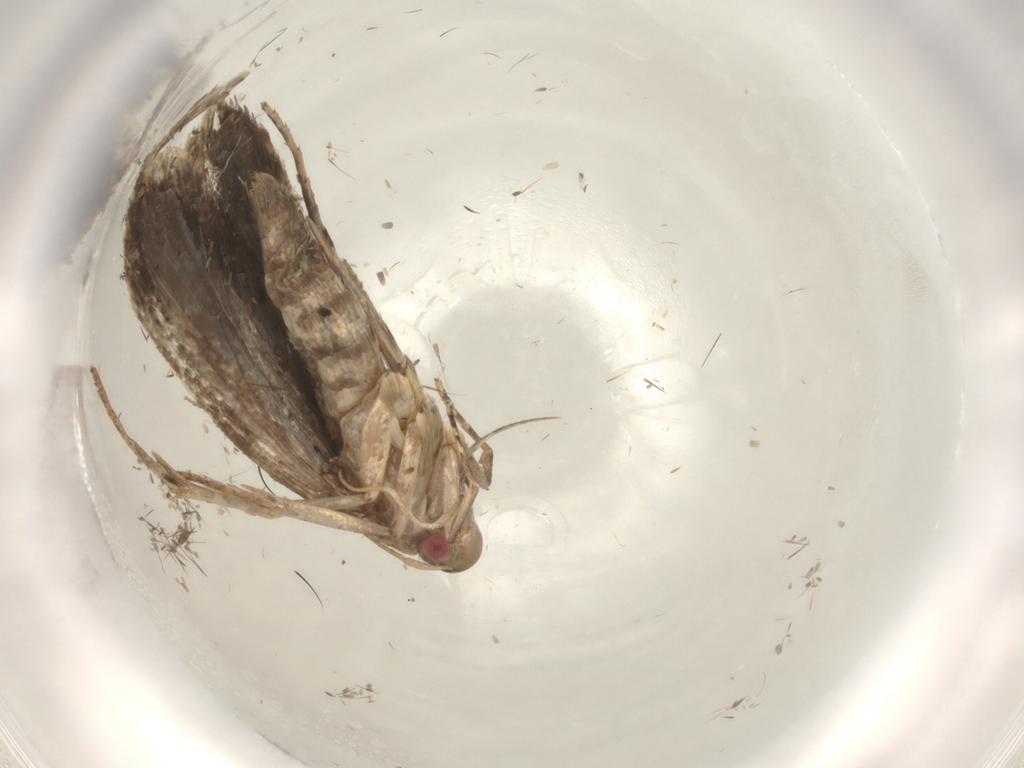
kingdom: Animalia
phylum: Arthropoda
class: Insecta
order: Lepidoptera
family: Gelechiidae
